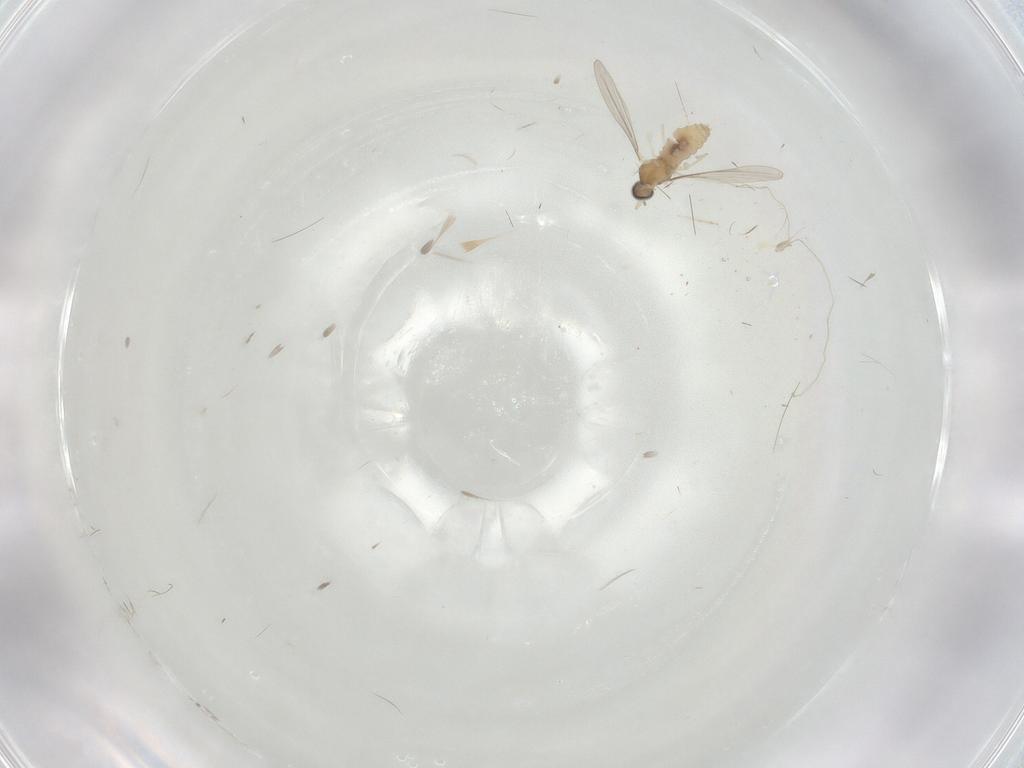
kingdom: Animalia
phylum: Arthropoda
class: Insecta
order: Diptera
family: Cecidomyiidae
